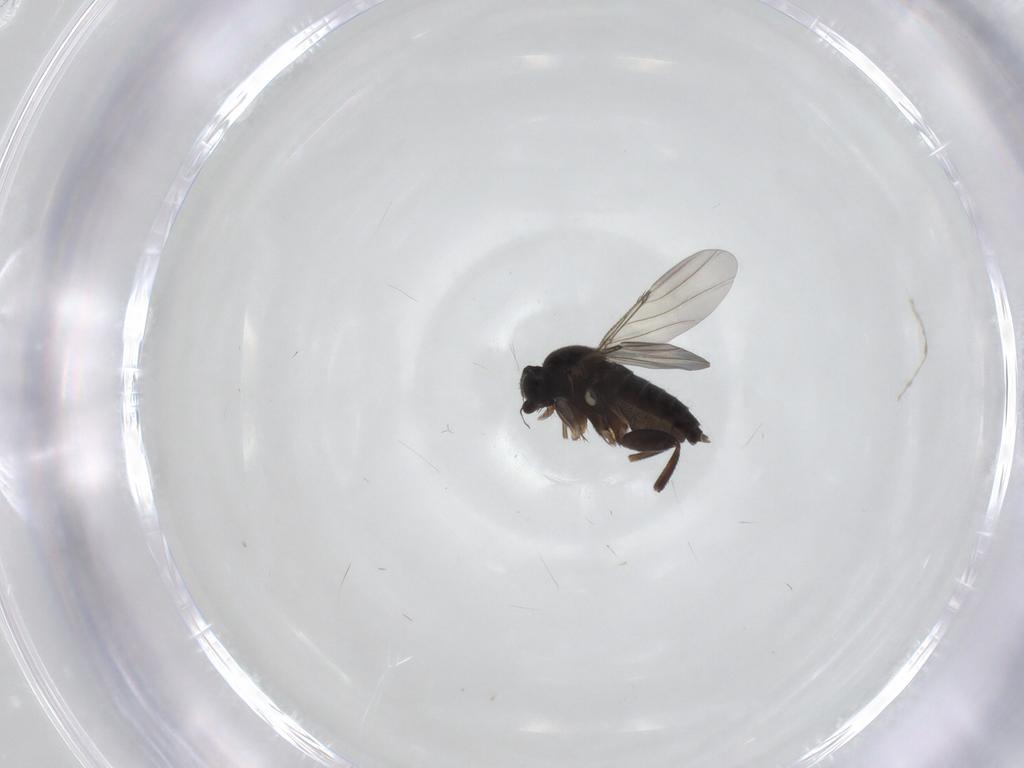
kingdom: Animalia
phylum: Arthropoda
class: Insecta
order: Diptera
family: Phoridae
